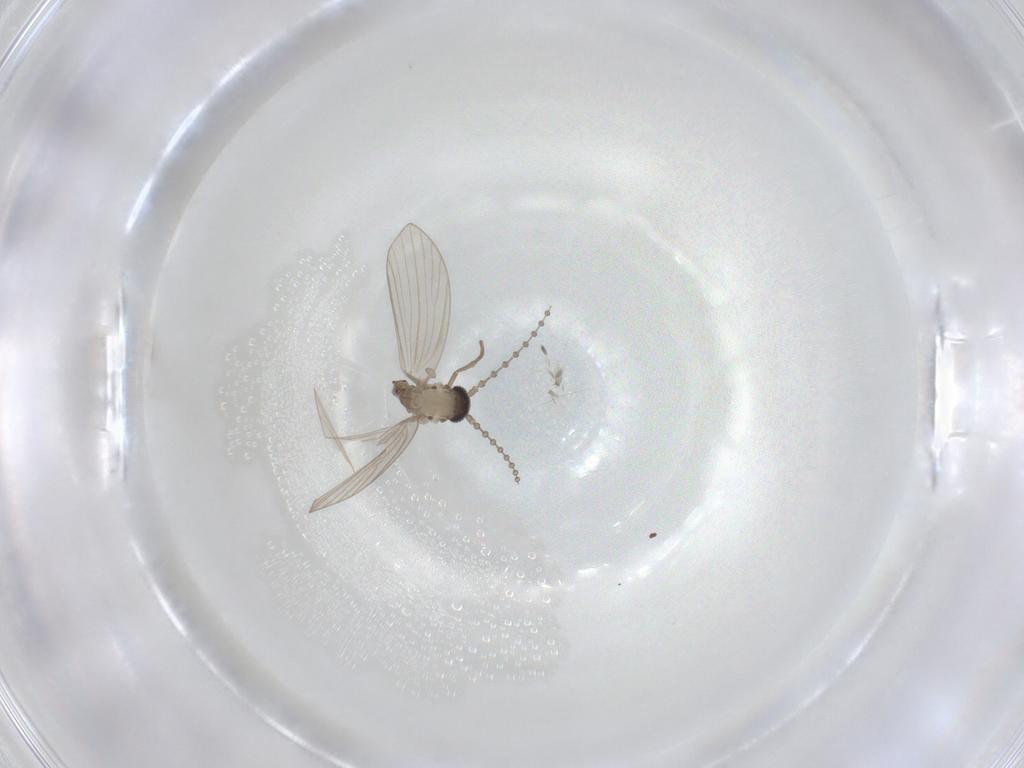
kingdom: Animalia
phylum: Arthropoda
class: Insecta
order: Diptera
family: Psychodidae
